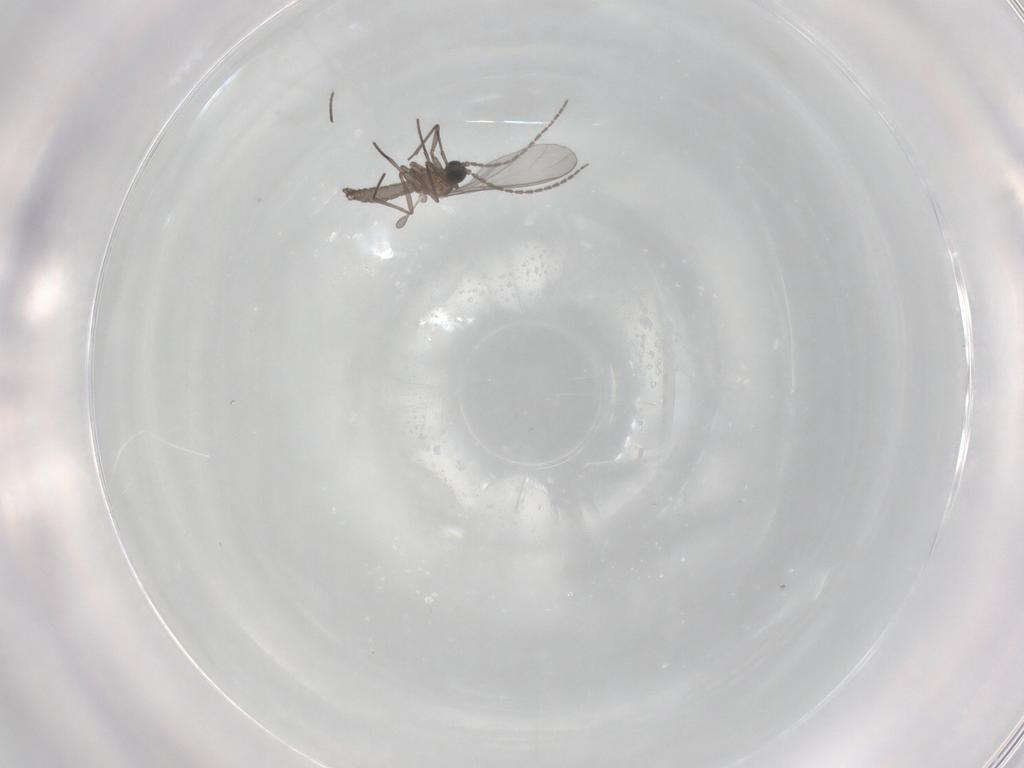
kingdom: Animalia
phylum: Arthropoda
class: Insecta
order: Diptera
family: Sciaridae
